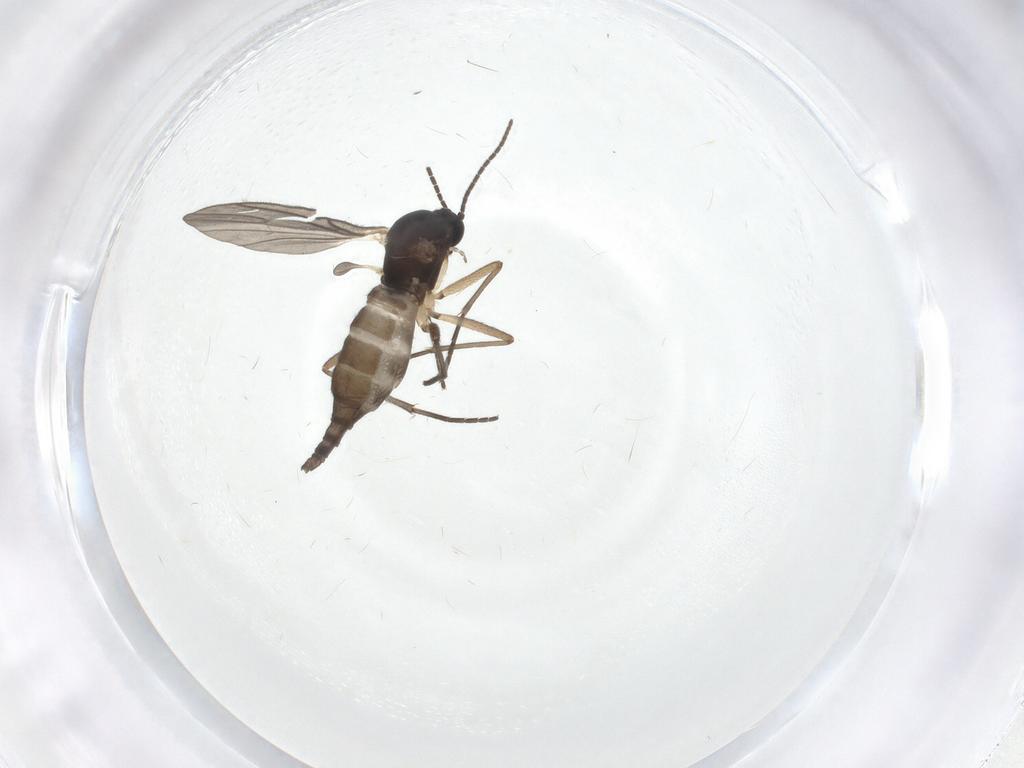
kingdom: Animalia
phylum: Arthropoda
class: Insecta
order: Diptera
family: Sciaridae
